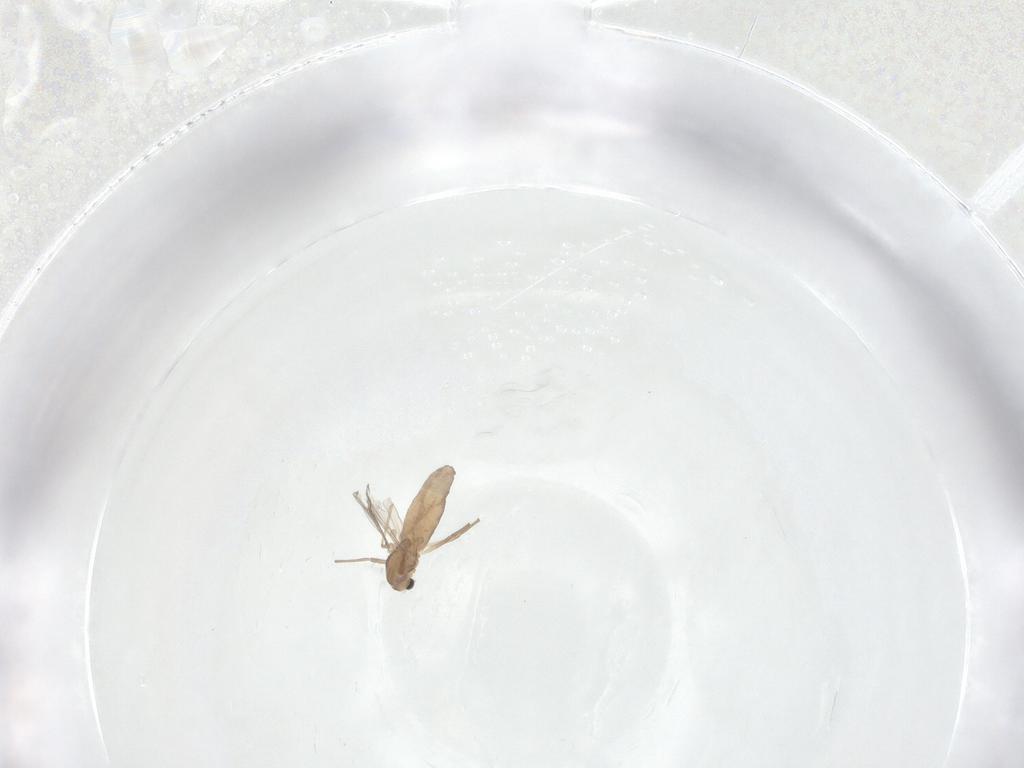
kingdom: Animalia
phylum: Arthropoda
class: Insecta
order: Diptera
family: Chironomidae
